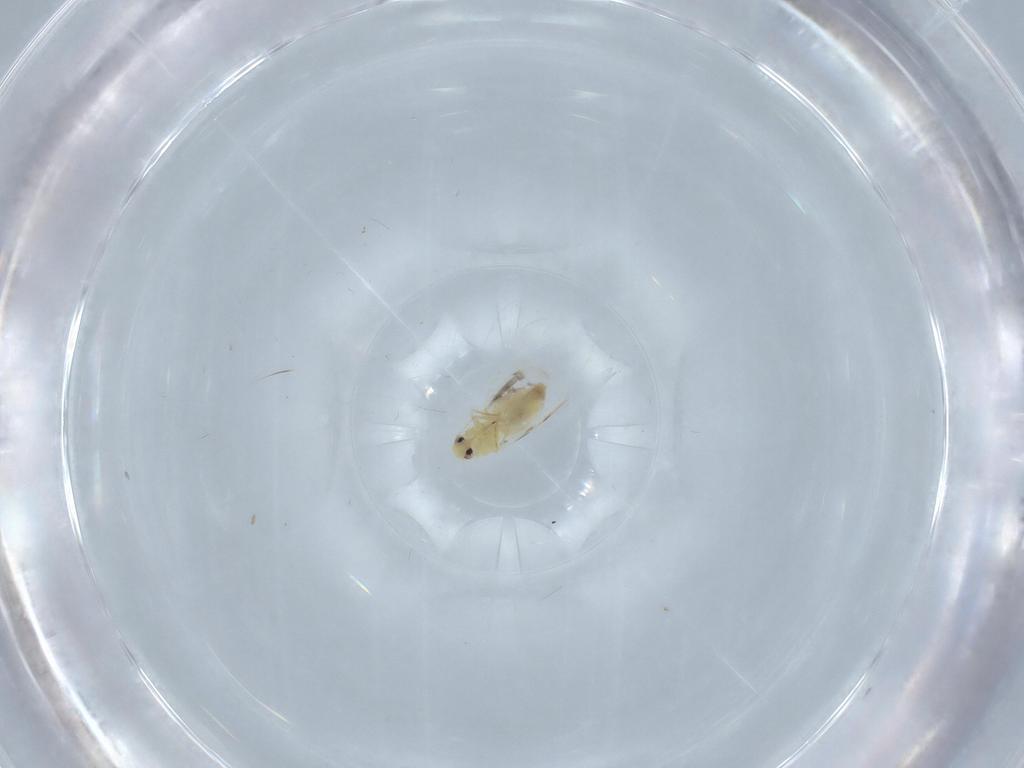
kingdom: Animalia
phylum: Arthropoda
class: Insecta
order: Hemiptera
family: Aleyrodidae
